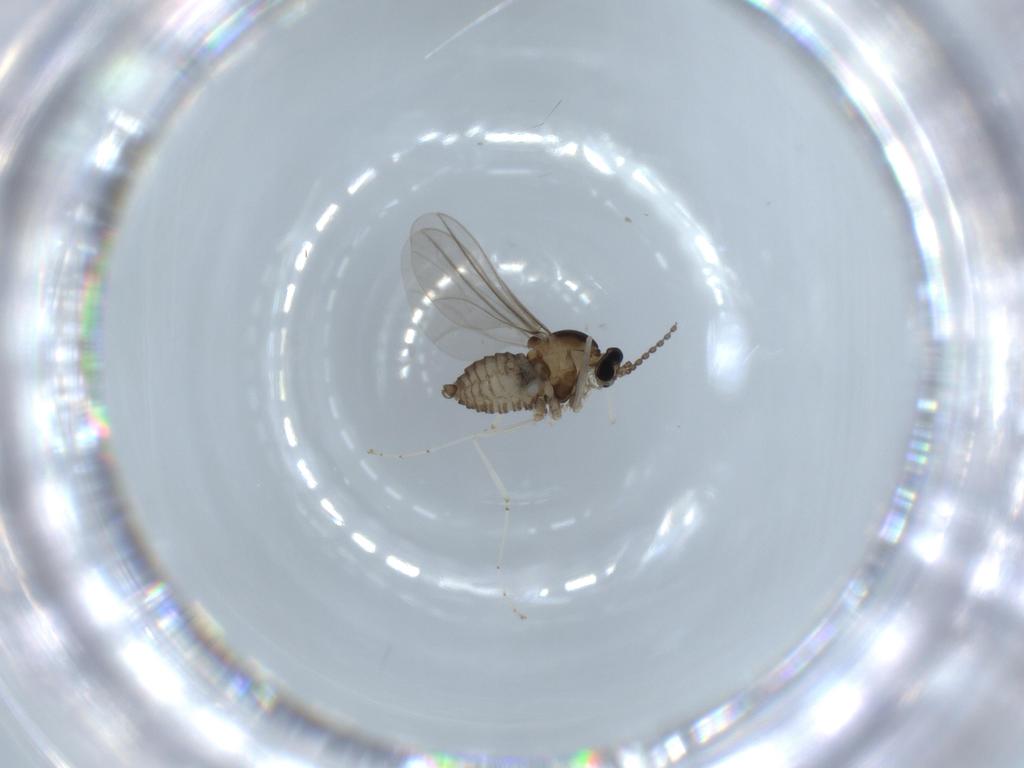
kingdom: Animalia
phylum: Arthropoda
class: Insecta
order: Diptera
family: Cecidomyiidae
